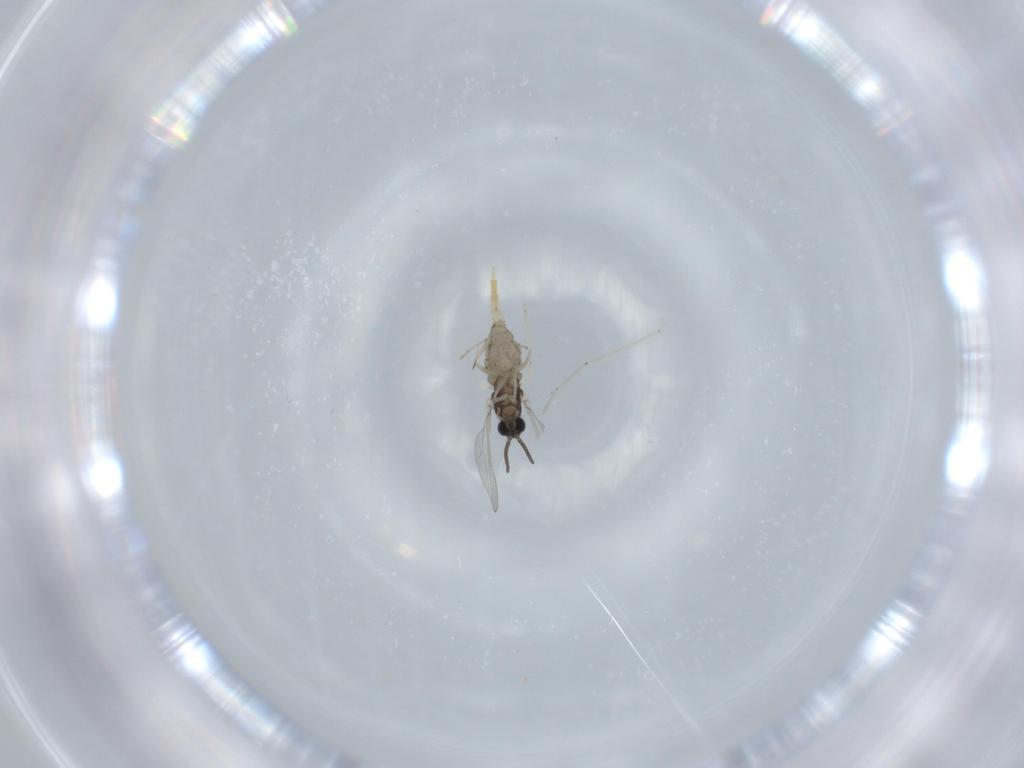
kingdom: Animalia
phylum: Arthropoda
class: Insecta
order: Diptera
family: Cecidomyiidae
